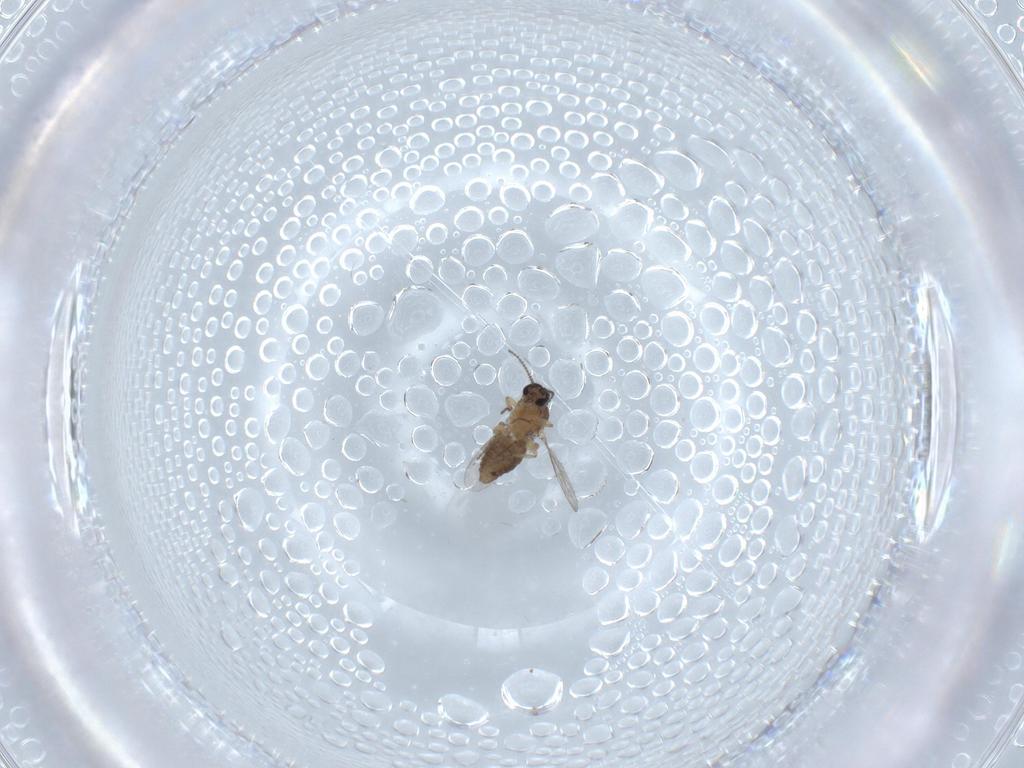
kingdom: Animalia
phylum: Arthropoda
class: Insecta
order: Diptera
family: Ceratopogonidae
